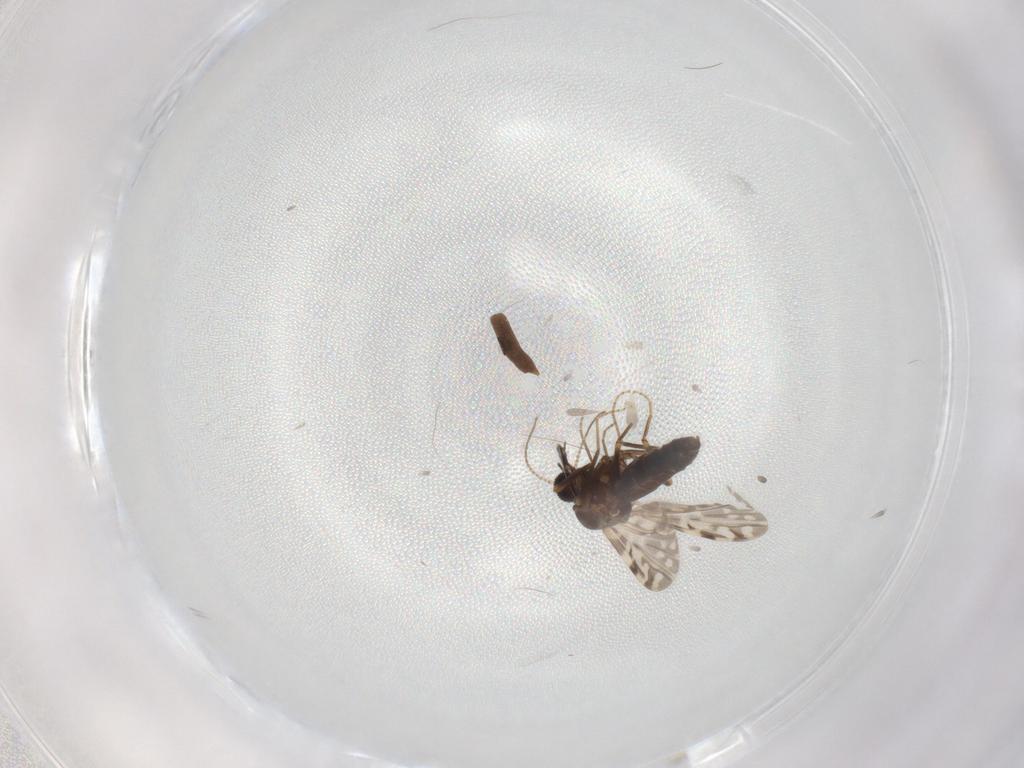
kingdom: Animalia
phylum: Arthropoda
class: Insecta
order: Diptera
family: Ceratopogonidae
